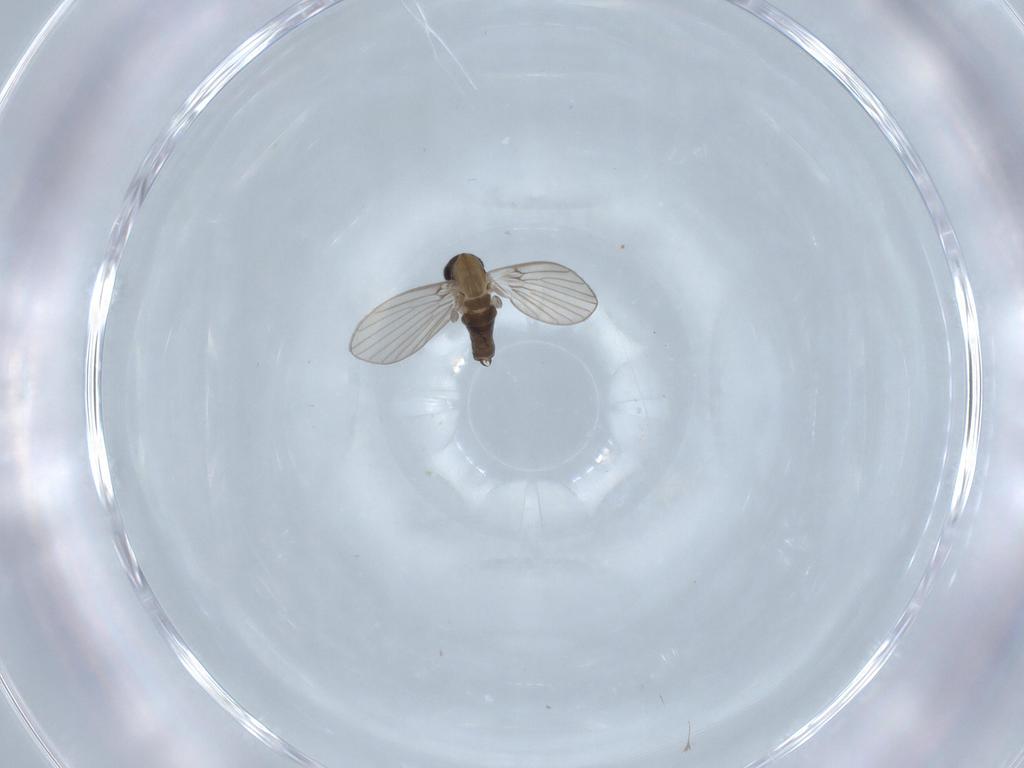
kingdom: Animalia
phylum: Arthropoda
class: Insecta
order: Diptera
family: Psychodidae
